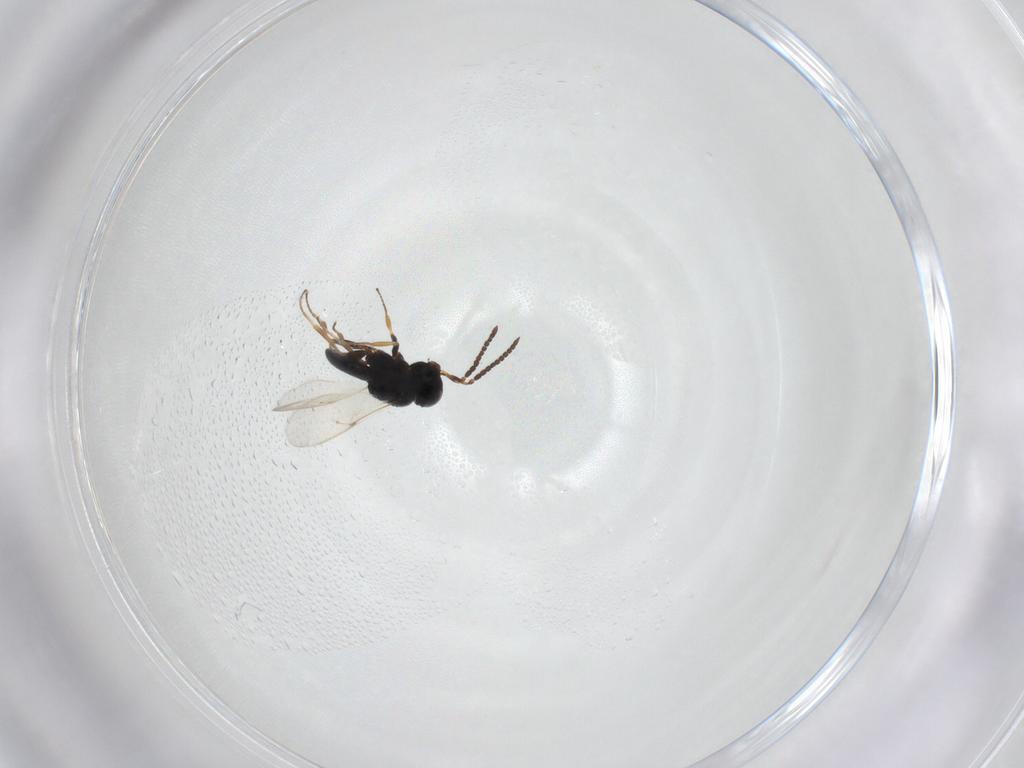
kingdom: Animalia
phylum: Arthropoda
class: Insecta
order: Hymenoptera
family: Scelionidae
